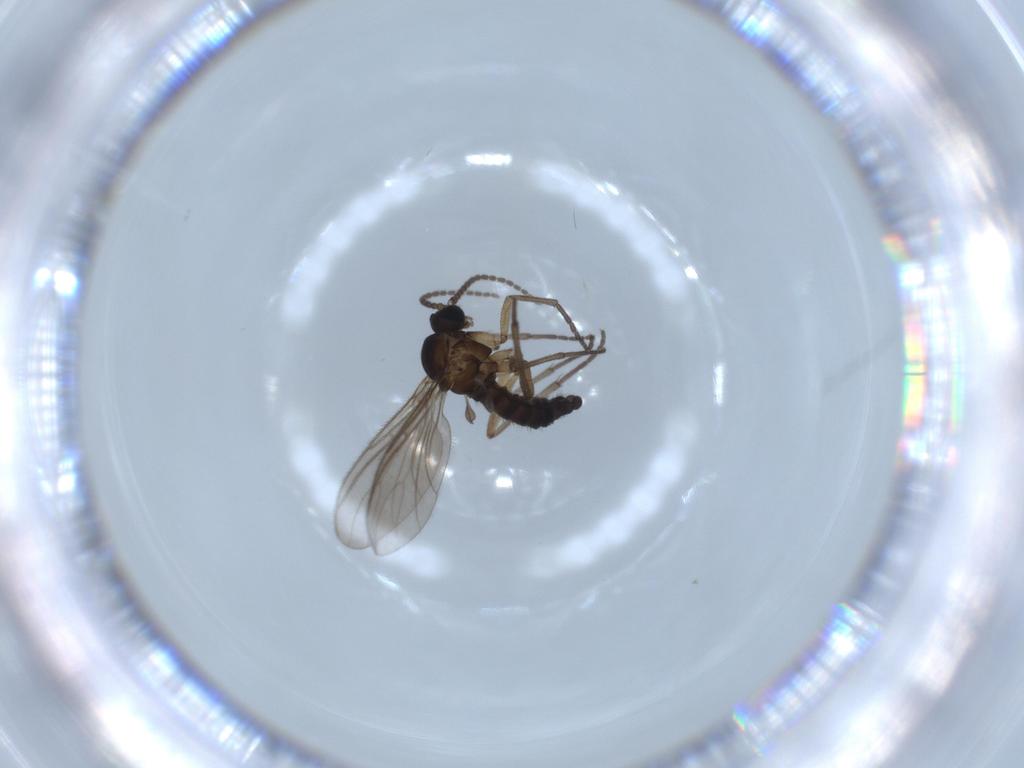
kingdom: Animalia
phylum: Arthropoda
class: Insecta
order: Diptera
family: Sciaridae
